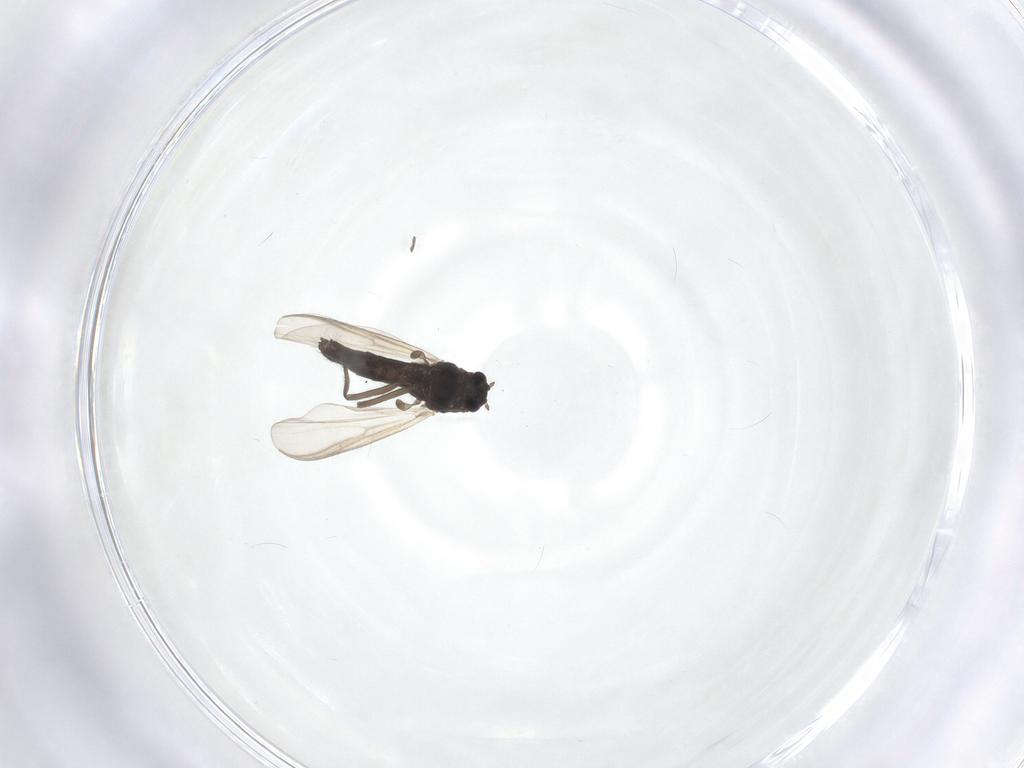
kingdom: Animalia
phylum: Arthropoda
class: Insecta
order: Diptera
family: Chironomidae
